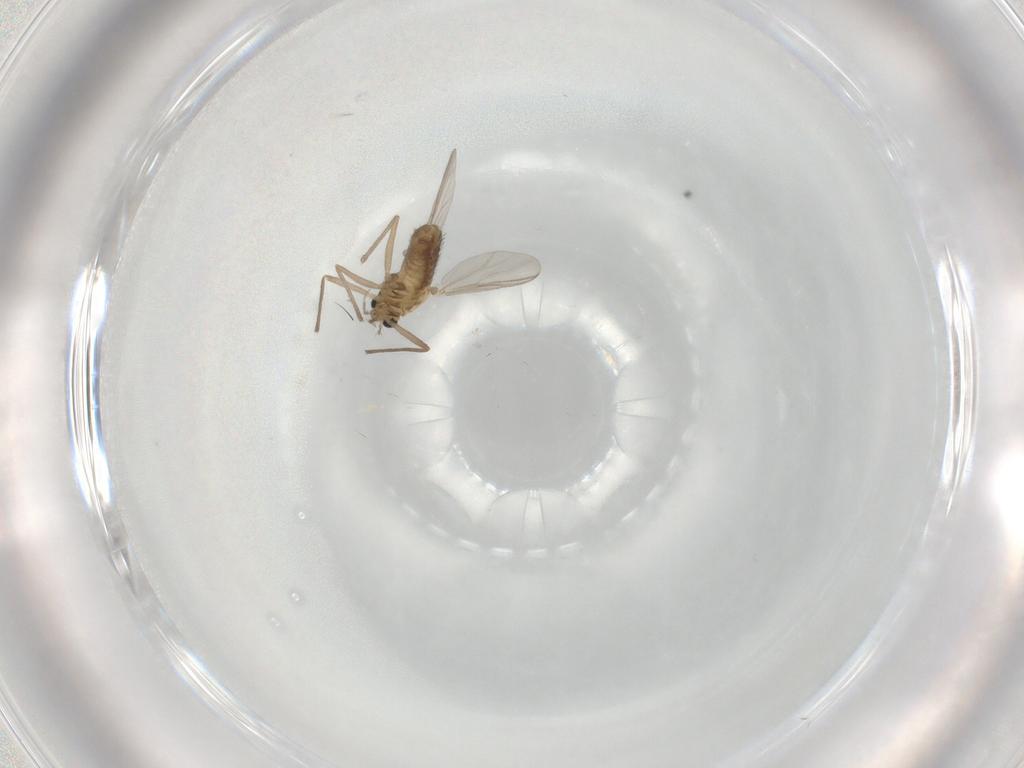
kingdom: Animalia
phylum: Arthropoda
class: Insecta
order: Diptera
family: Chironomidae
